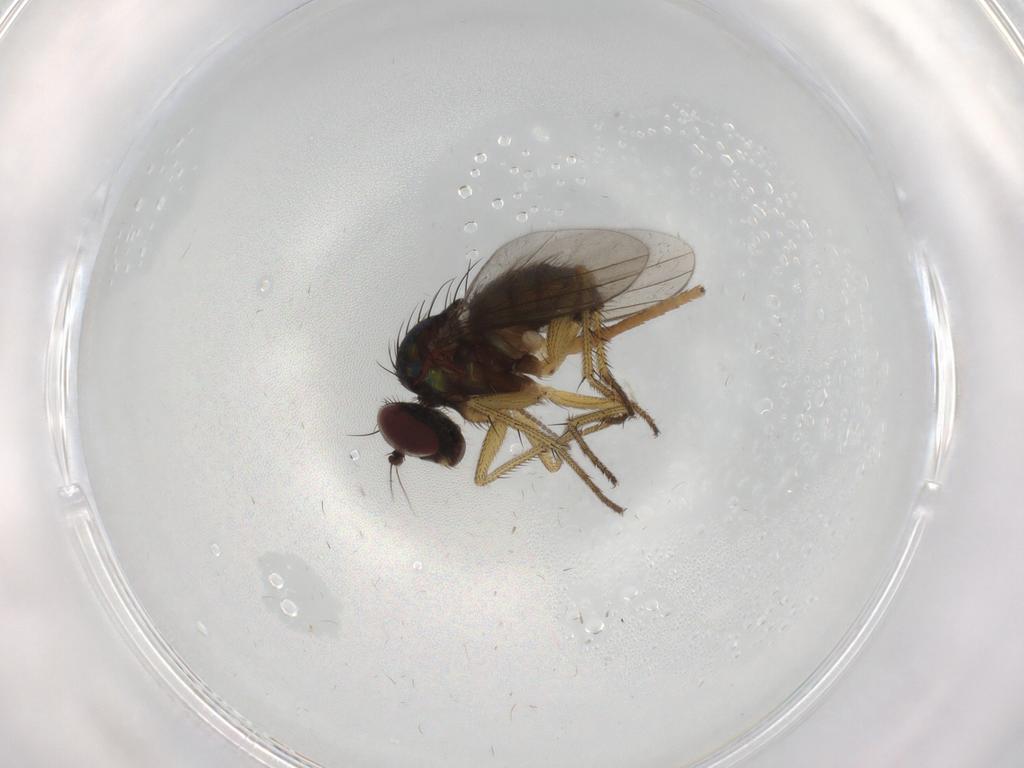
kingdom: Animalia
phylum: Arthropoda
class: Insecta
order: Diptera
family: Dolichopodidae
